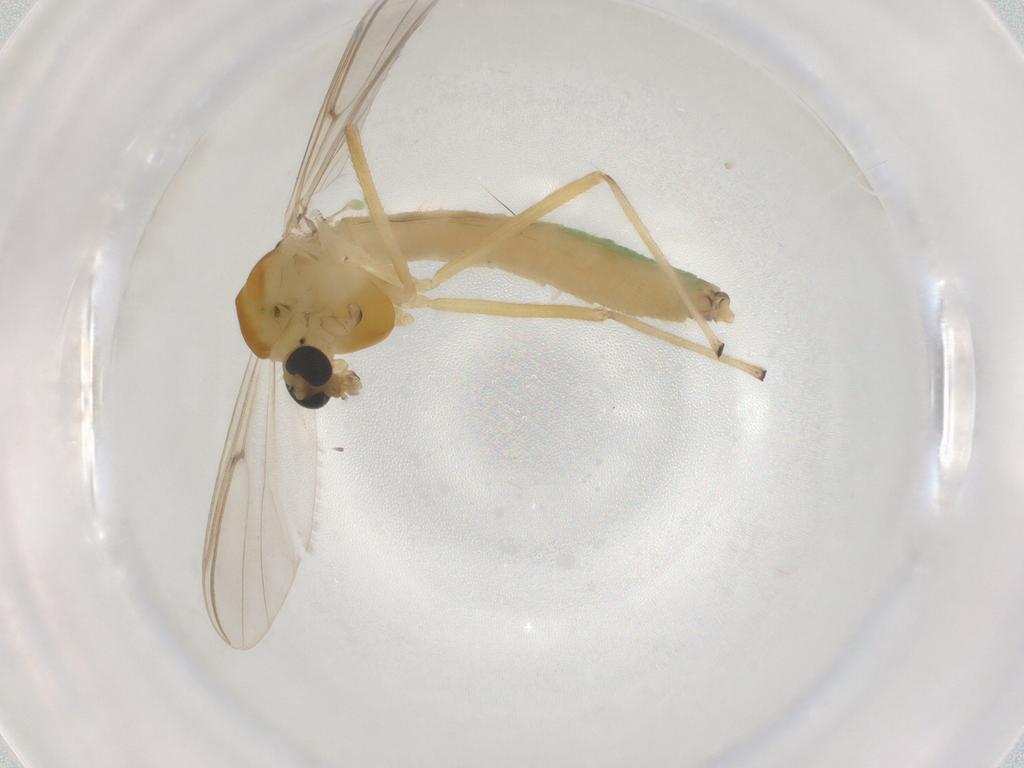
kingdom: Animalia
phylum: Arthropoda
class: Insecta
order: Diptera
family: Chironomidae
